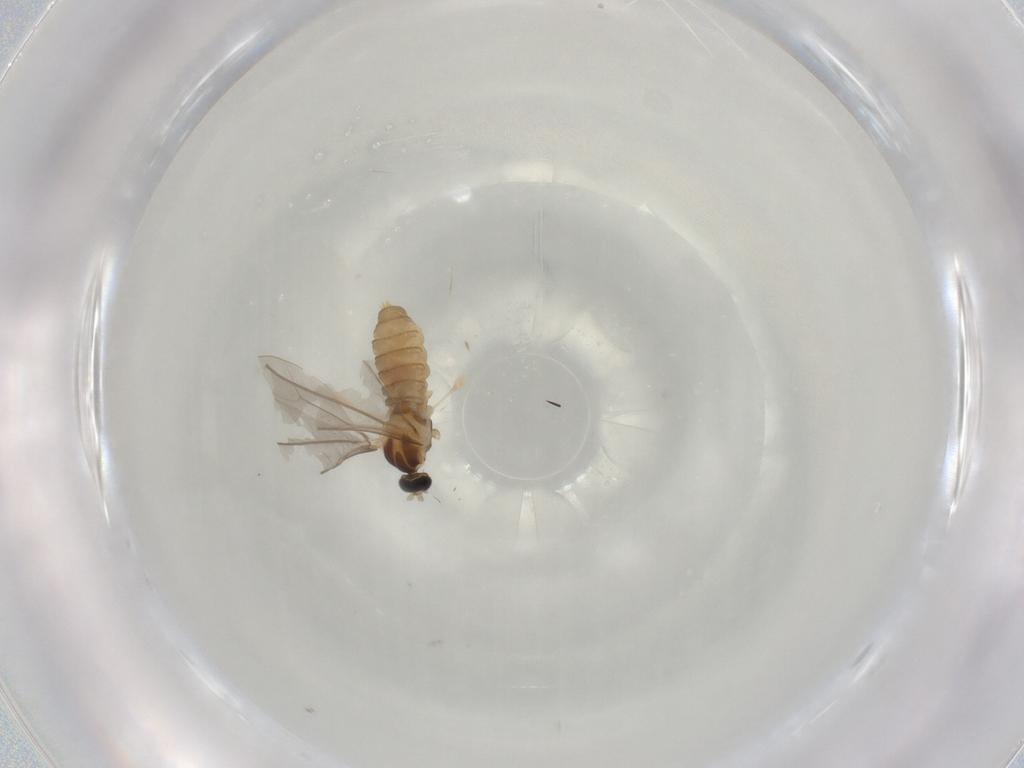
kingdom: Animalia
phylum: Arthropoda
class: Insecta
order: Diptera
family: Cecidomyiidae
